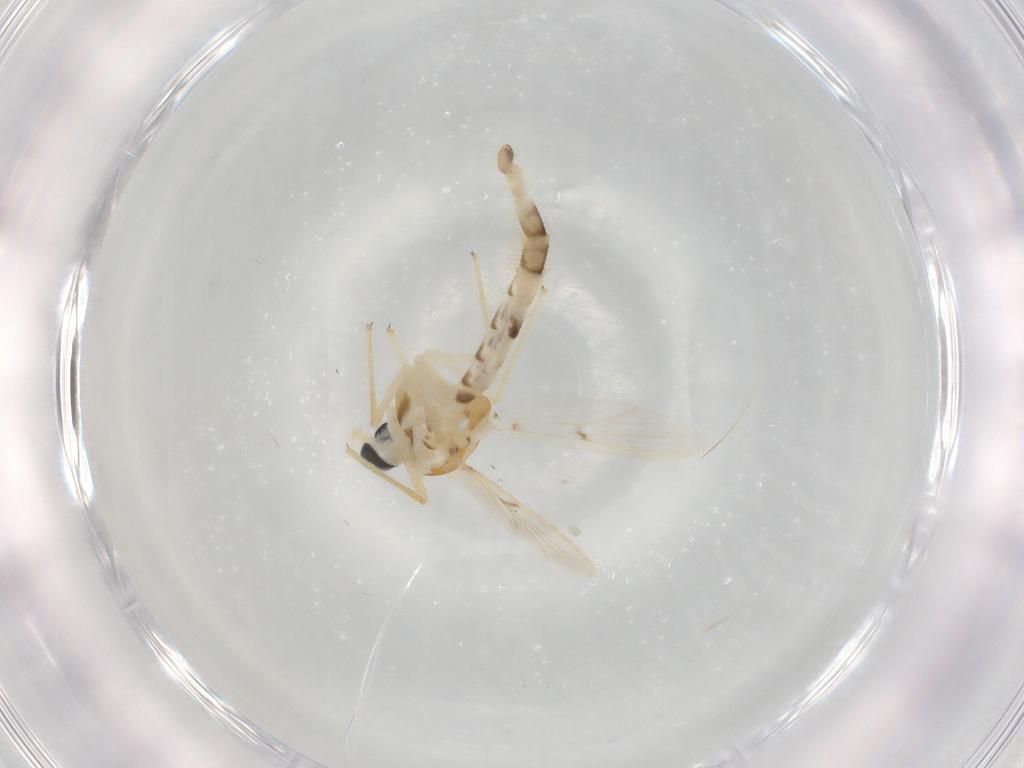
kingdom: Animalia
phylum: Arthropoda
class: Insecta
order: Diptera
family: Chironomidae
